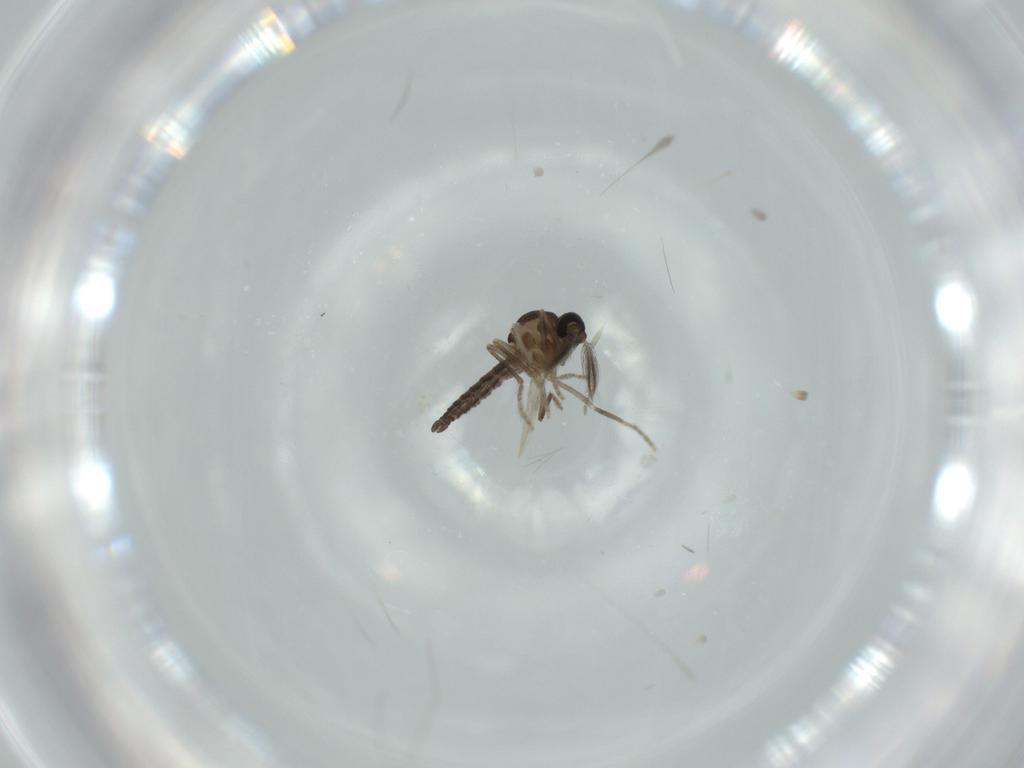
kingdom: Animalia
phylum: Arthropoda
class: Insecta
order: Diptera
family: Ceratopogonidae
